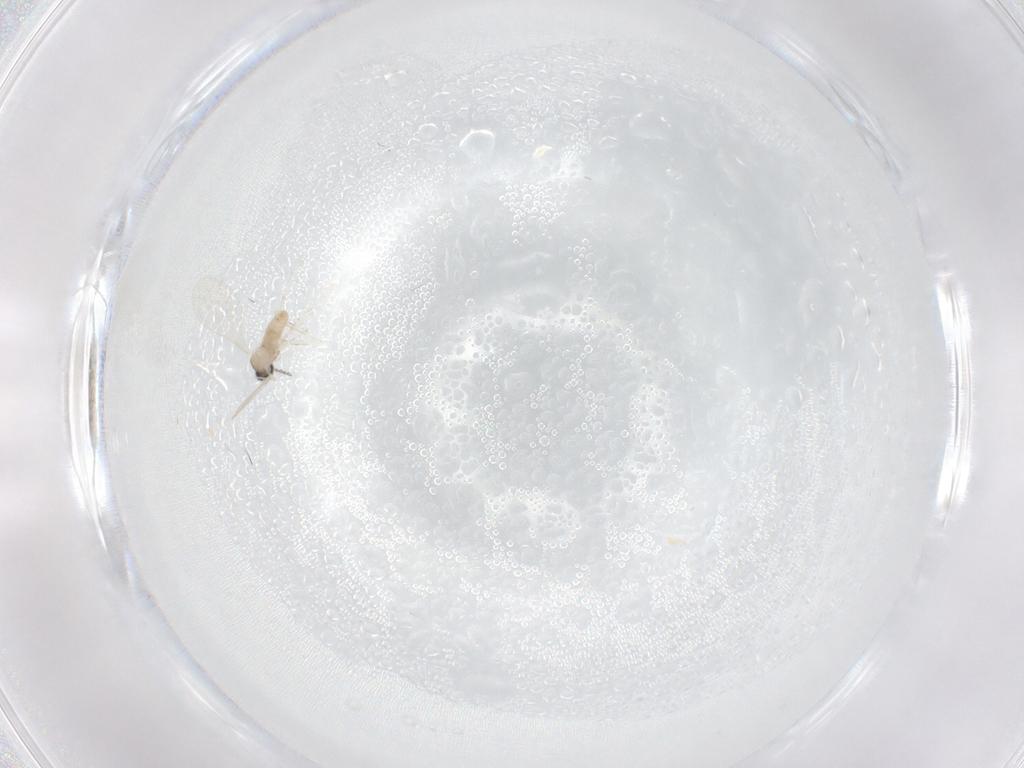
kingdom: Animalia
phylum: Arthropoda
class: Insecta
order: Diptera
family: Cecidomyiidae
